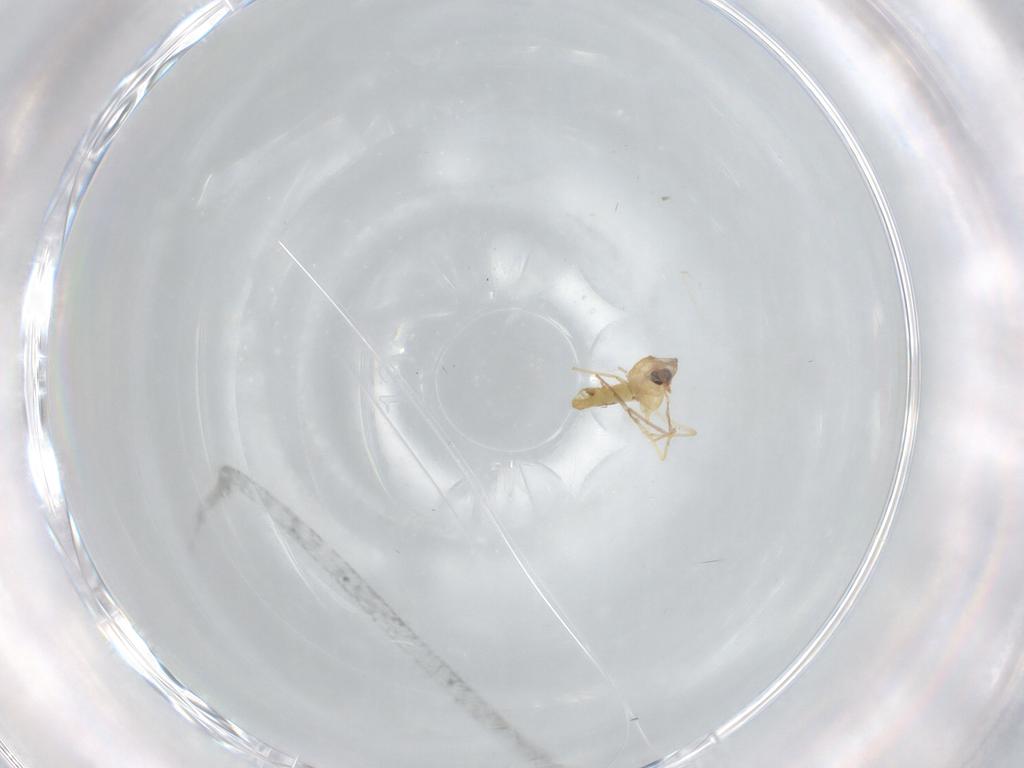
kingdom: Animalia
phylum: Arthropoda
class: Insecta
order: Diptera
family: Chironomidae
